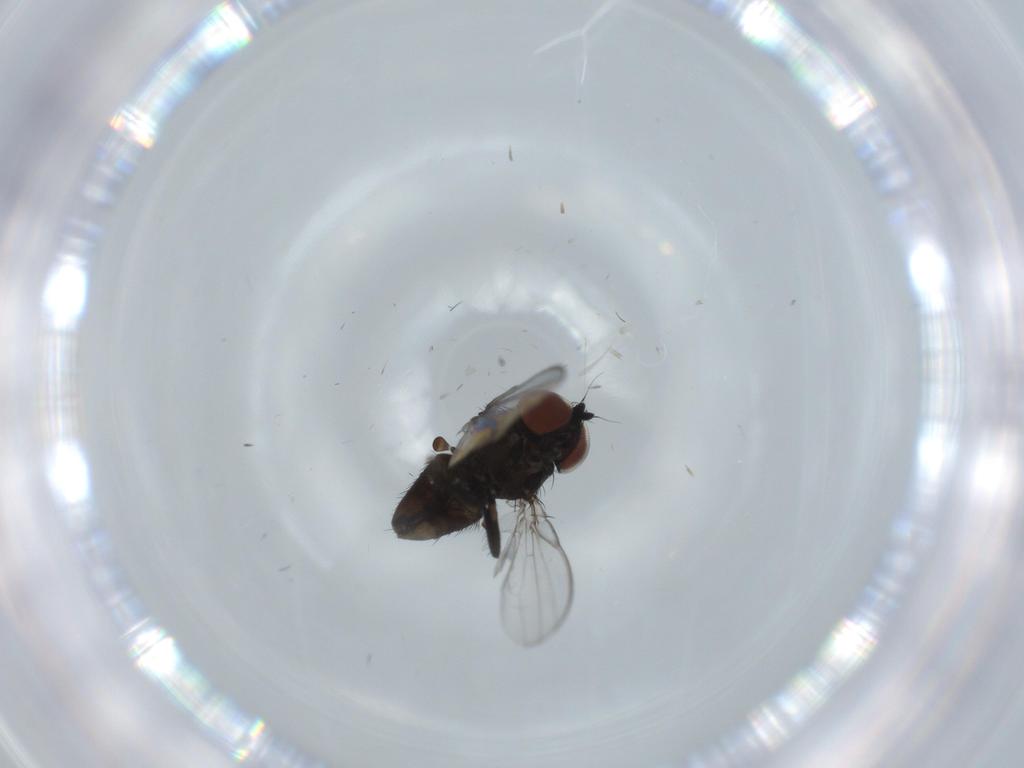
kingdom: Animalia
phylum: Arthropoda
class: Insecta
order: Diptera
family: Milichiidae
